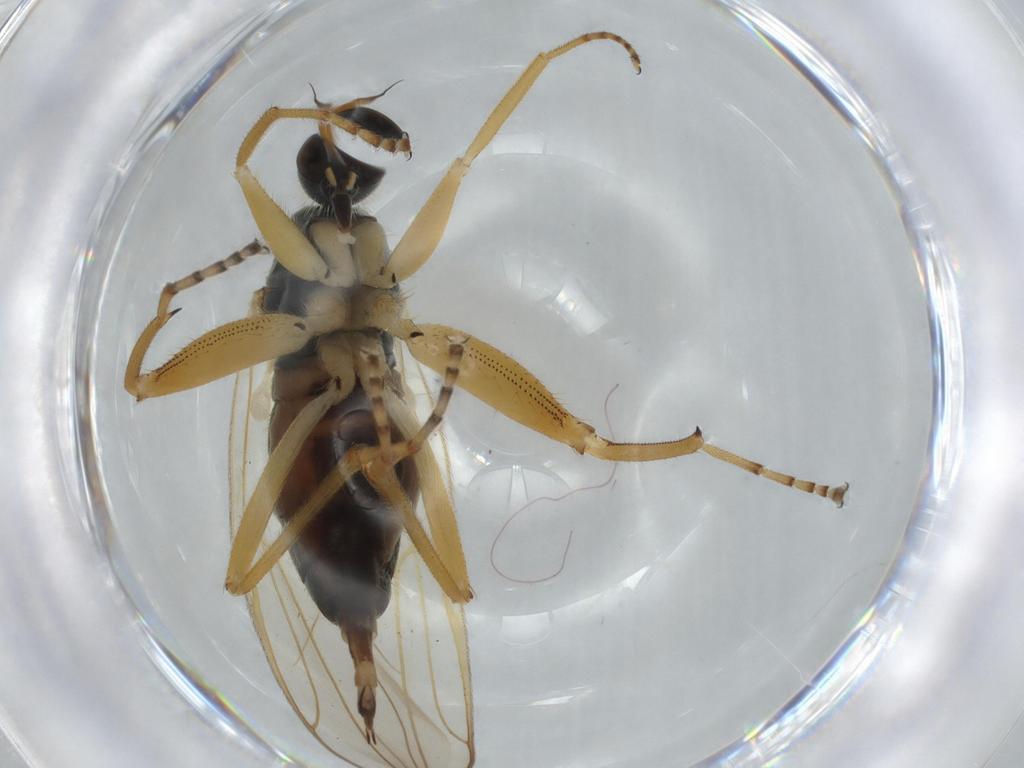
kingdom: Animalia
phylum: Arthropoda
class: Insecta
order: Diptera
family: Hybotidae
